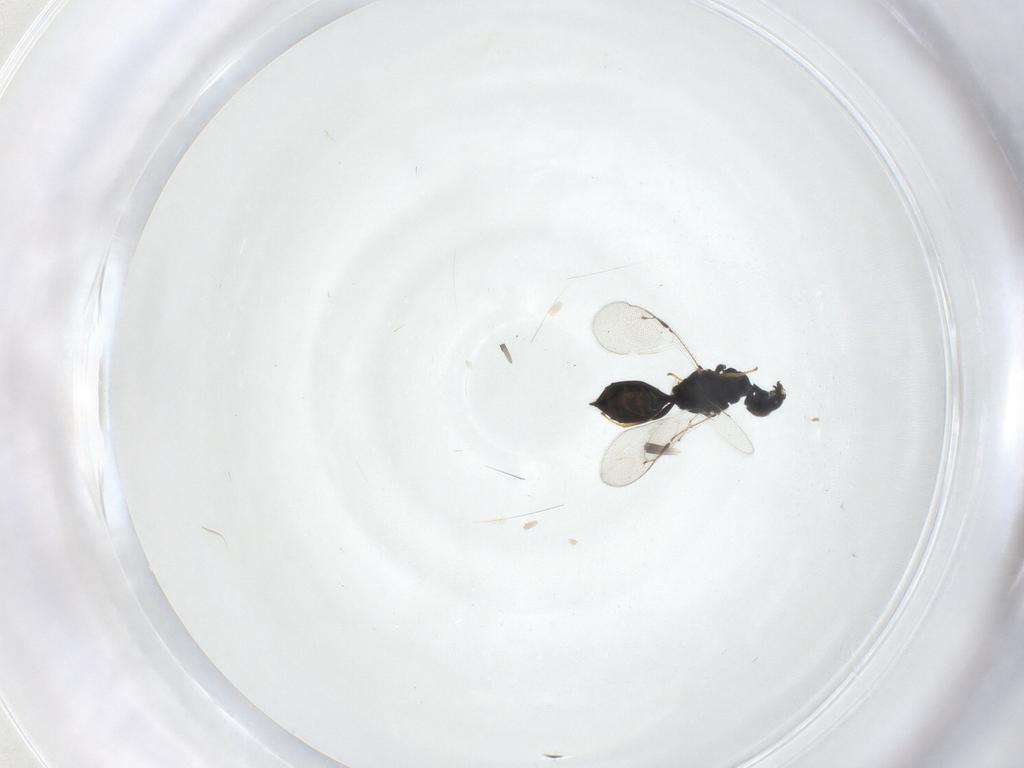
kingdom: Animalia
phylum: Arthropoda
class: Insecta
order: Hymenoptera
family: Pteromalidae
